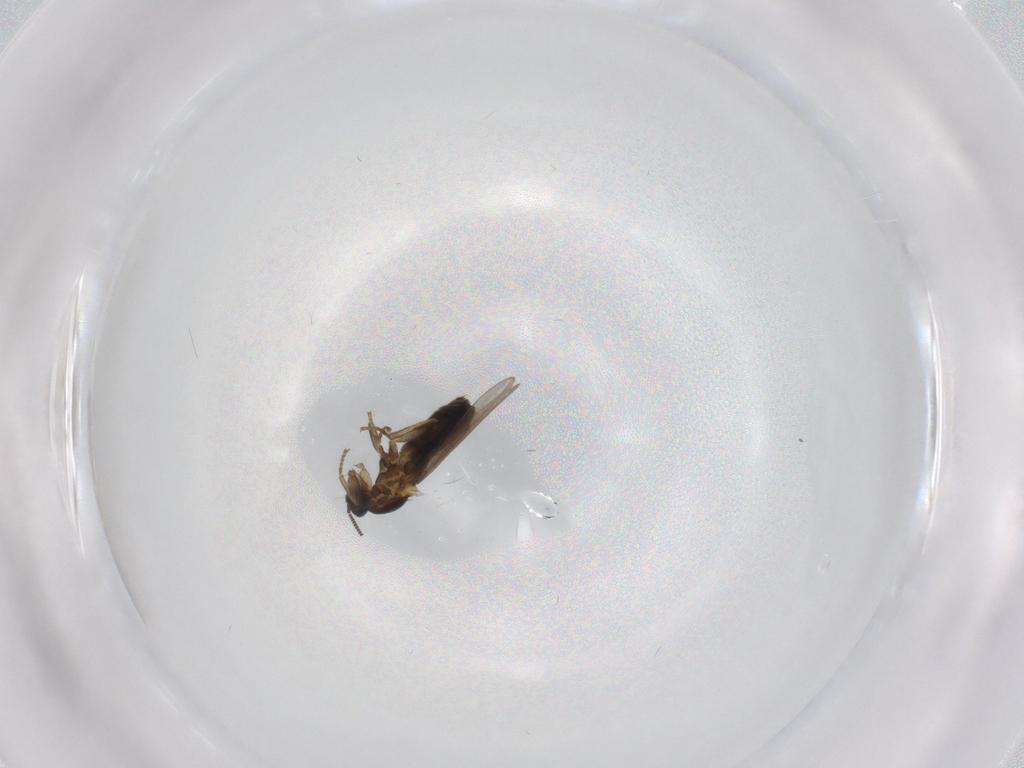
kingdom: Animalia
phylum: Arthropoda
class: Insecta
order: Diptera
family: Scatopsidae
